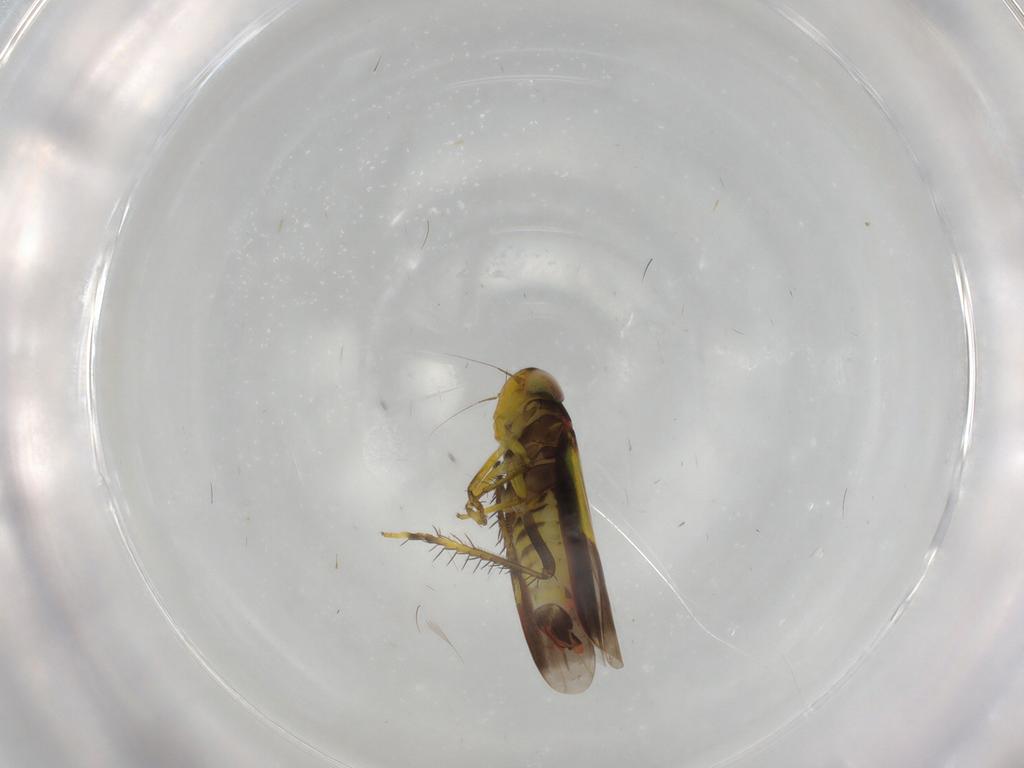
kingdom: Animalia
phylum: Arthropoda
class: Insecta
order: Hemiptera
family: Cicadellidae
